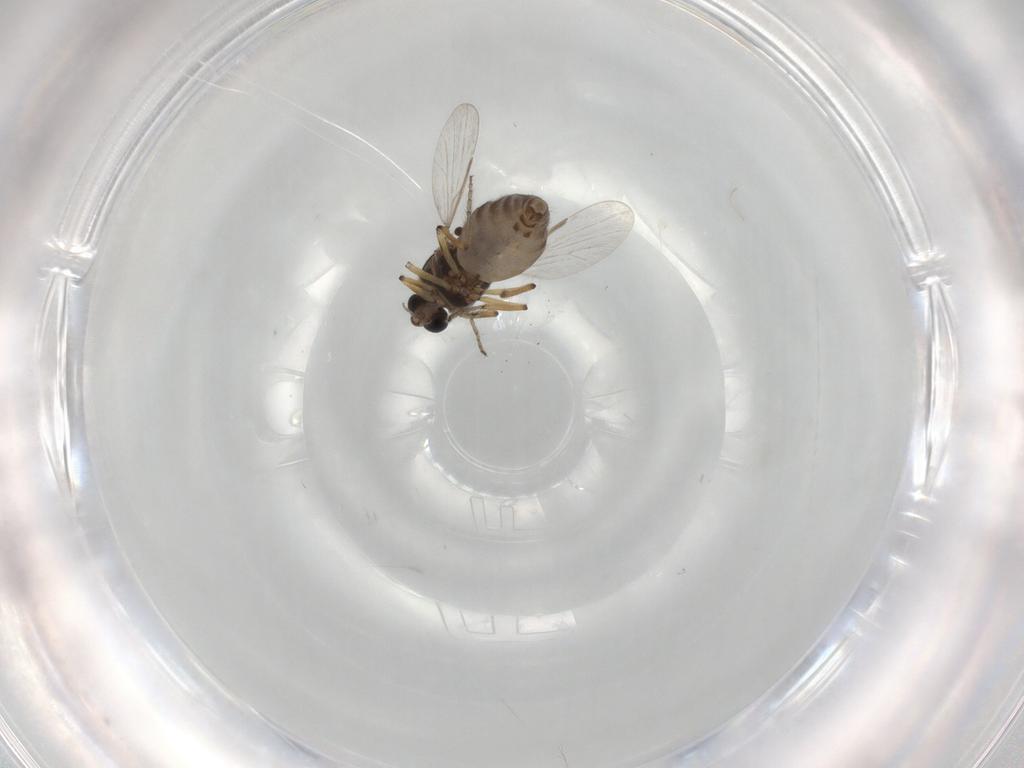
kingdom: Animalia
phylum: Arthropoda
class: Insecta
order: Diptera
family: Ceratopogonidae
